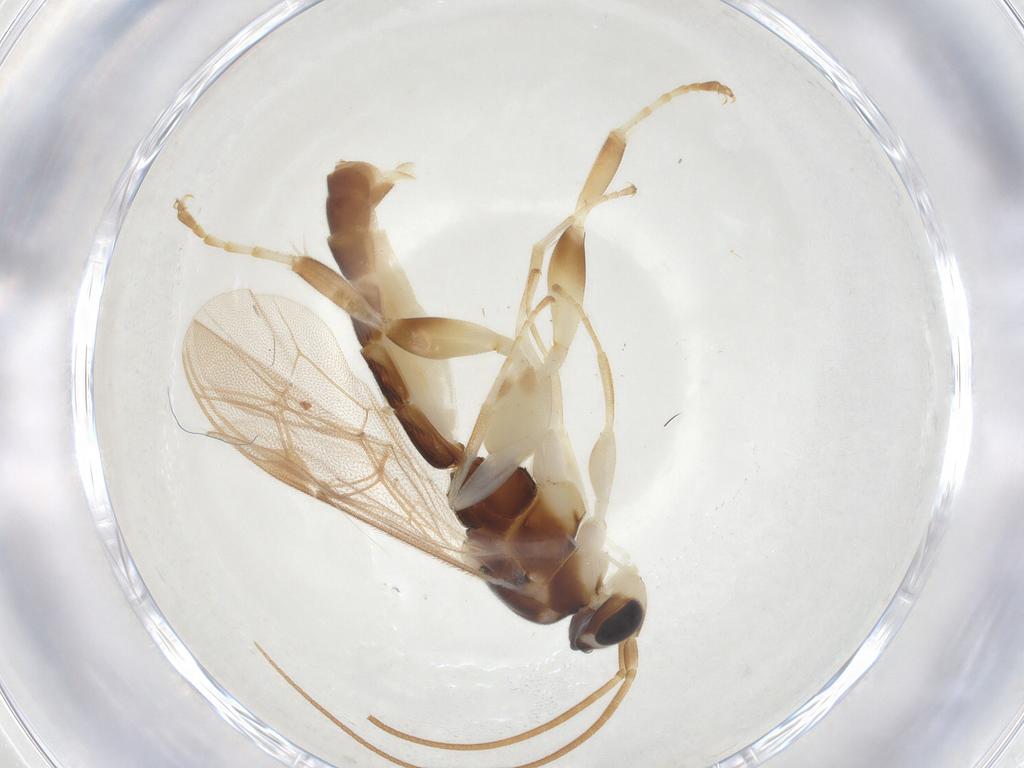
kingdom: Animalia
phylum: Arthropoda
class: Insecta
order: Hymenoptera
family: Ichneumonidae
